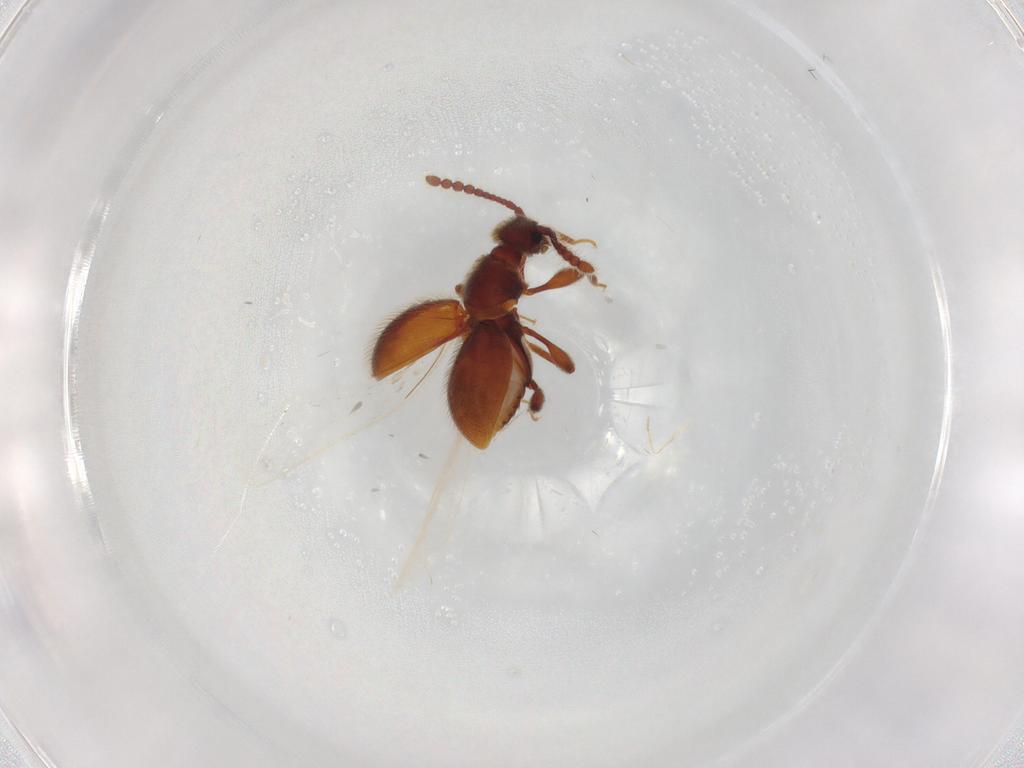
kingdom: Animalia
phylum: Arthropoda
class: Insecta
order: Coleoptera
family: Staphylinidae
